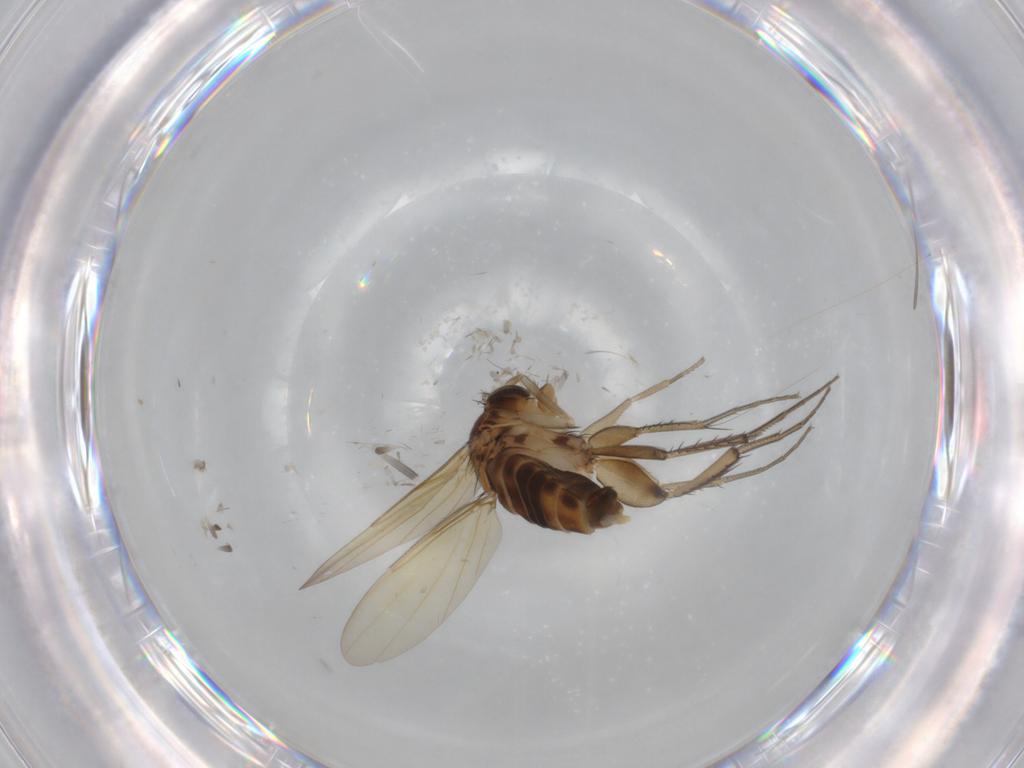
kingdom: Animalia
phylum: Arthropoda
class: Insecta
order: Diptera
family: Phoridae
